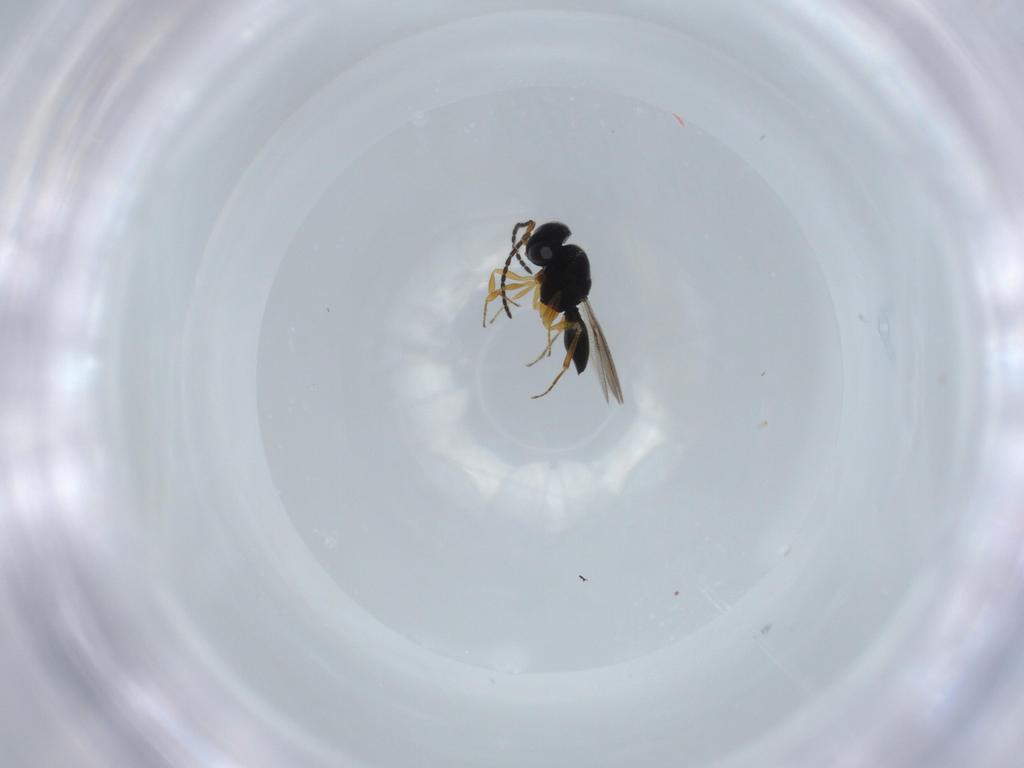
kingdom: Animalia
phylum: Arthropoda
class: Insecta
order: Hymenoptera
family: Scelionidae
